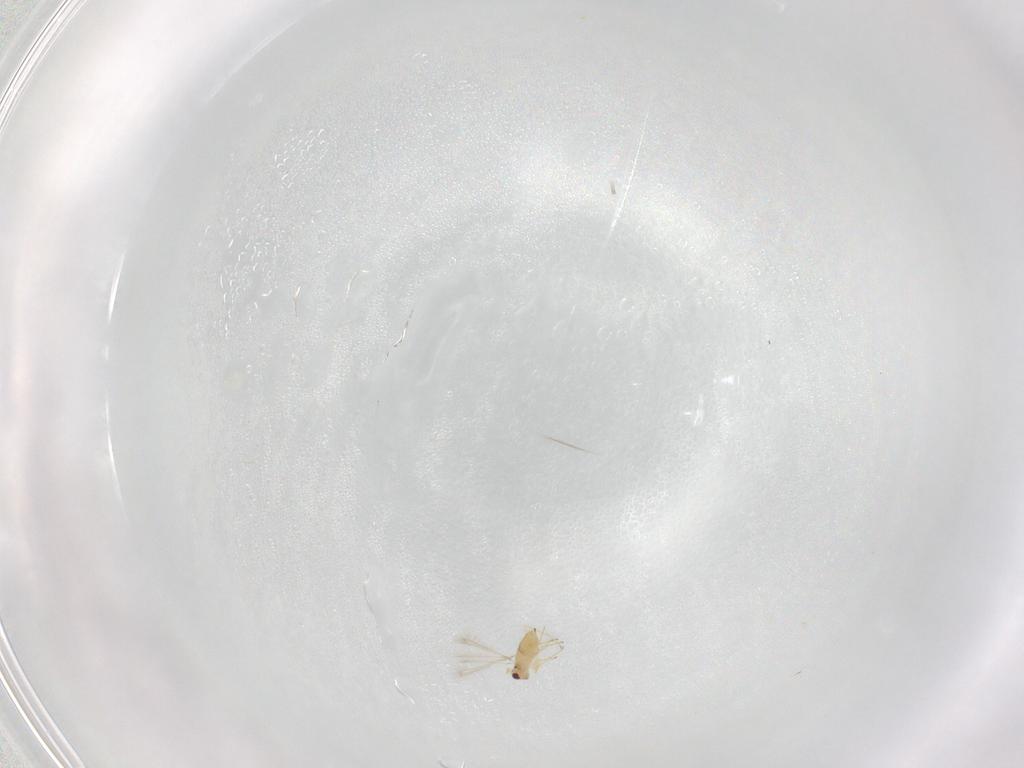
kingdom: Animalia
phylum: Arthropoda
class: Insecta
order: Hymenoptera
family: Mymaridae
